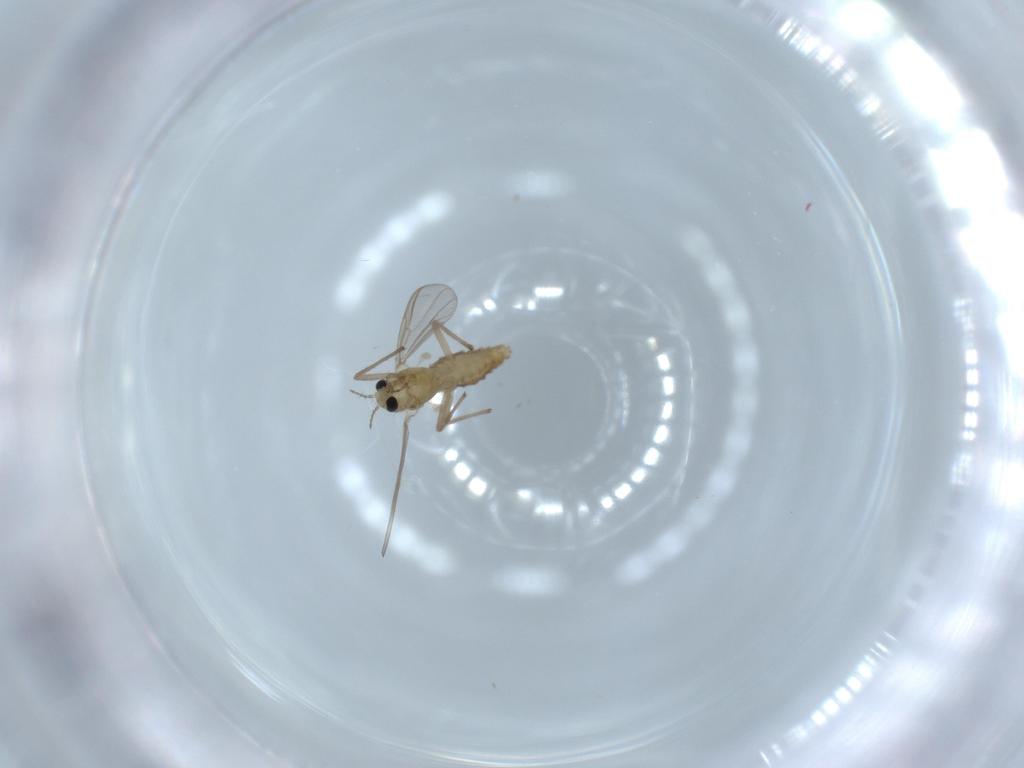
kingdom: Animalia
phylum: Arthropoda
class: Insecta
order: Diptera
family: Chironomidae
